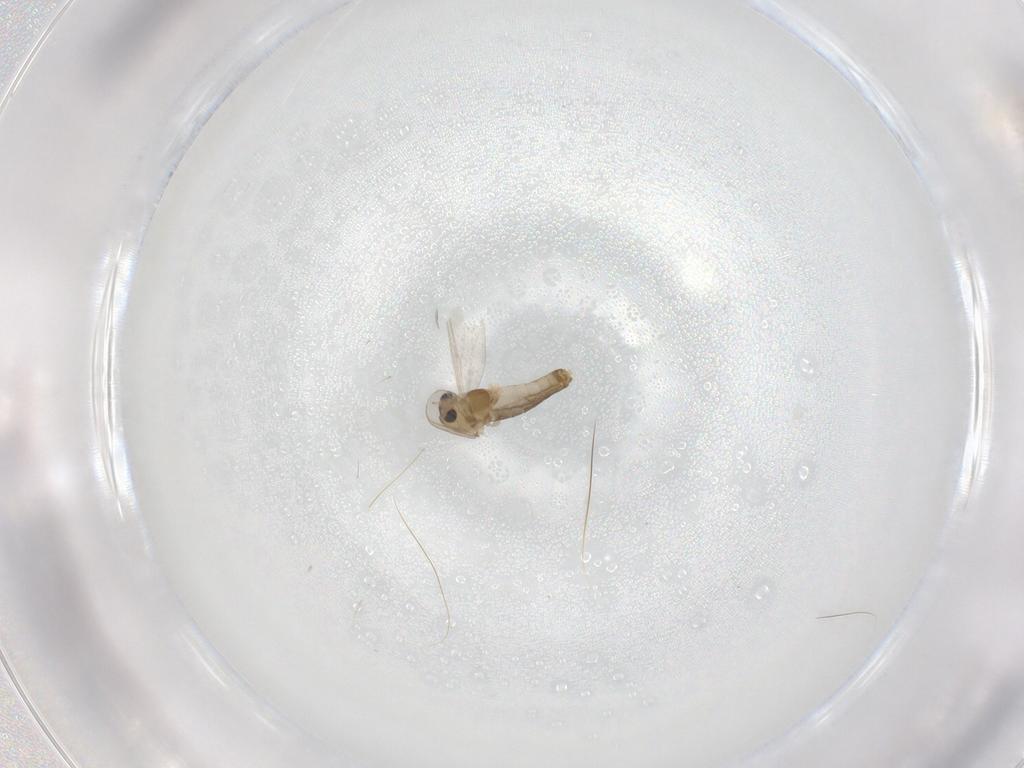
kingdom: Animalia
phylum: Arthropoda
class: Insecta
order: Diptera
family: Chironomidae
